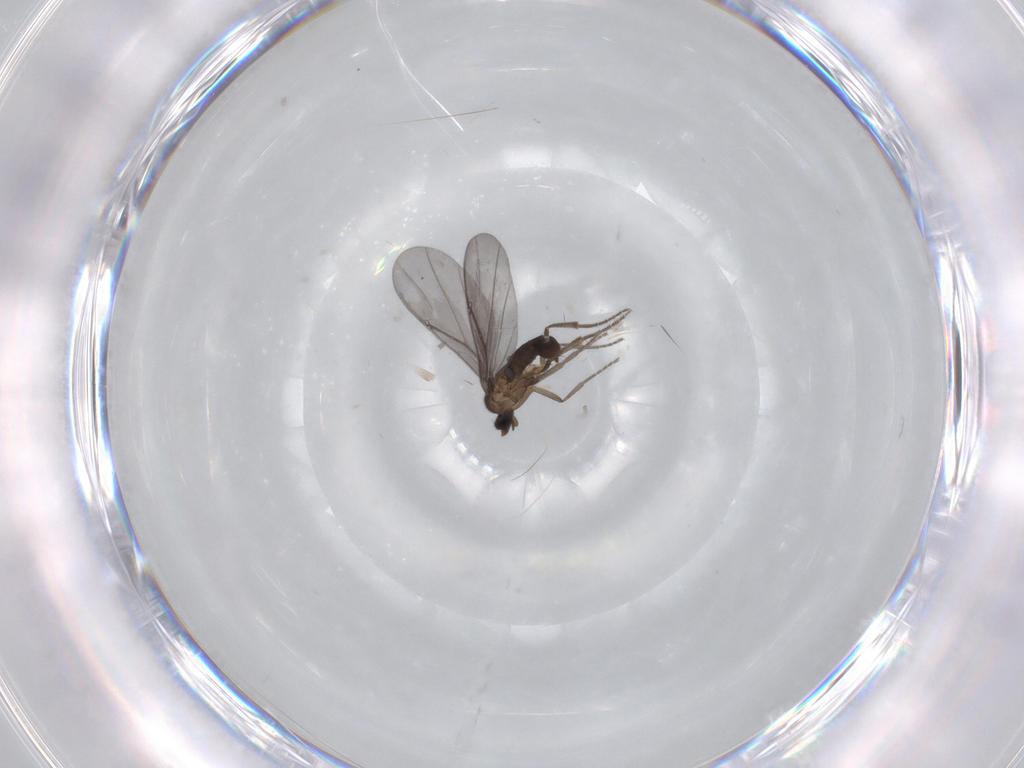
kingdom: Animalia
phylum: Arthropoda
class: Insecta
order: Diptera
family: Phoridae
